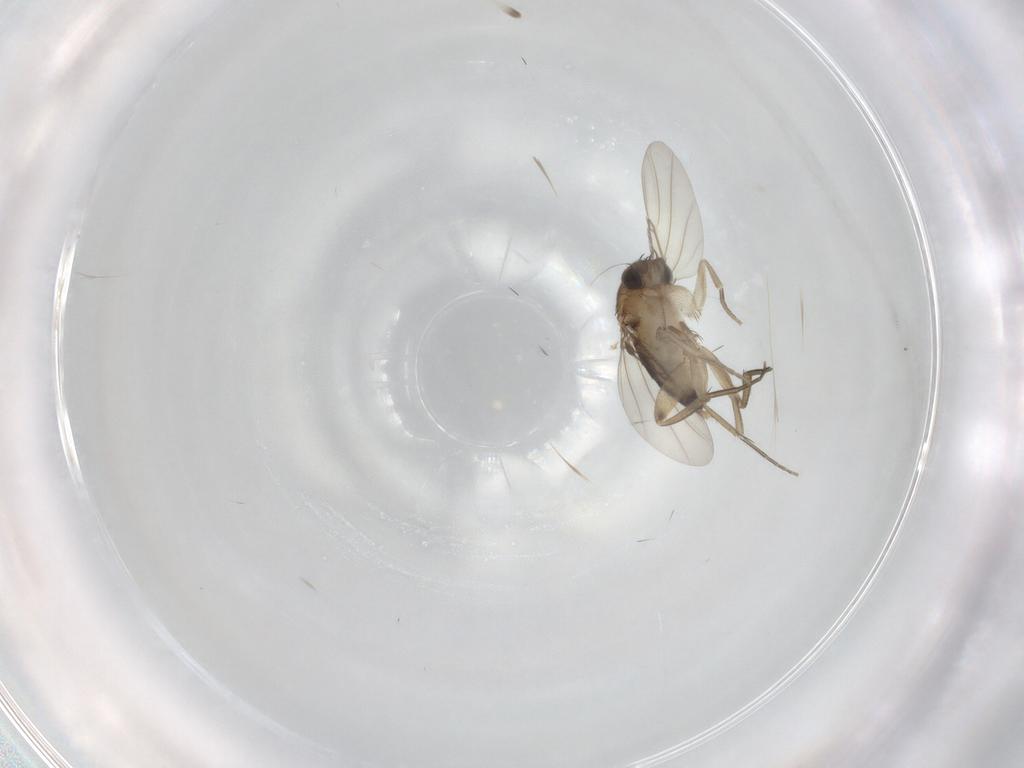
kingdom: Animalia
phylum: Arthropoda
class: Insecta
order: Diptera
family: Phoridae
